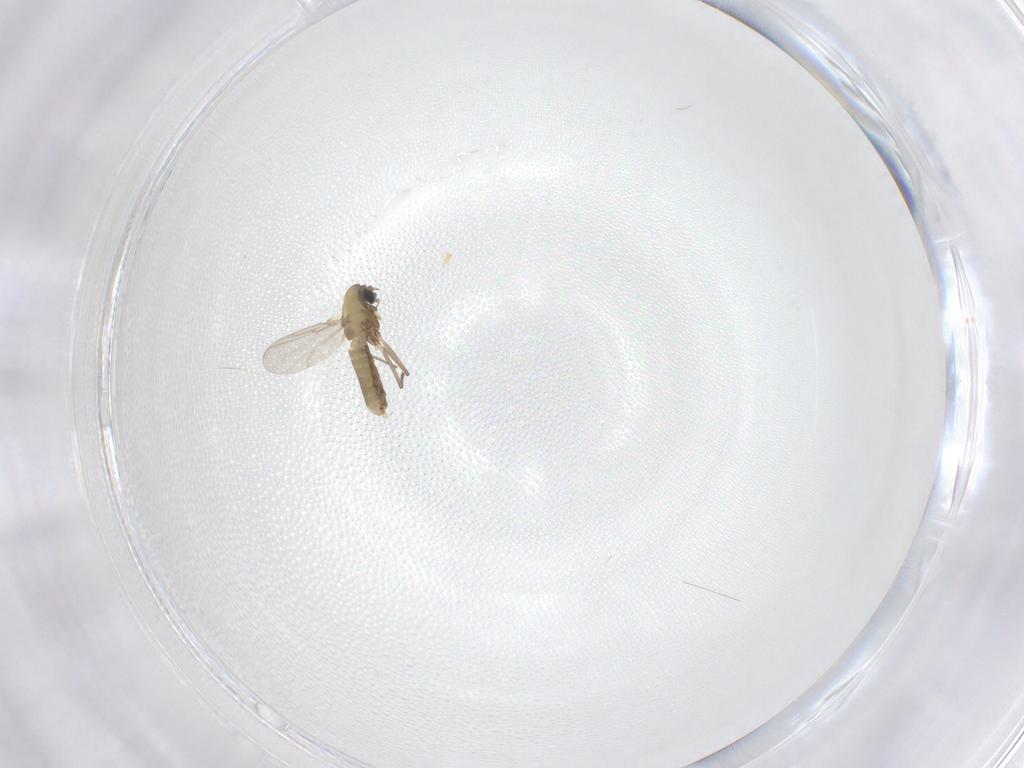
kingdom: Animalia
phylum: Arthropoda
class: Insecta
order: Diptera
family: Chironomidae
